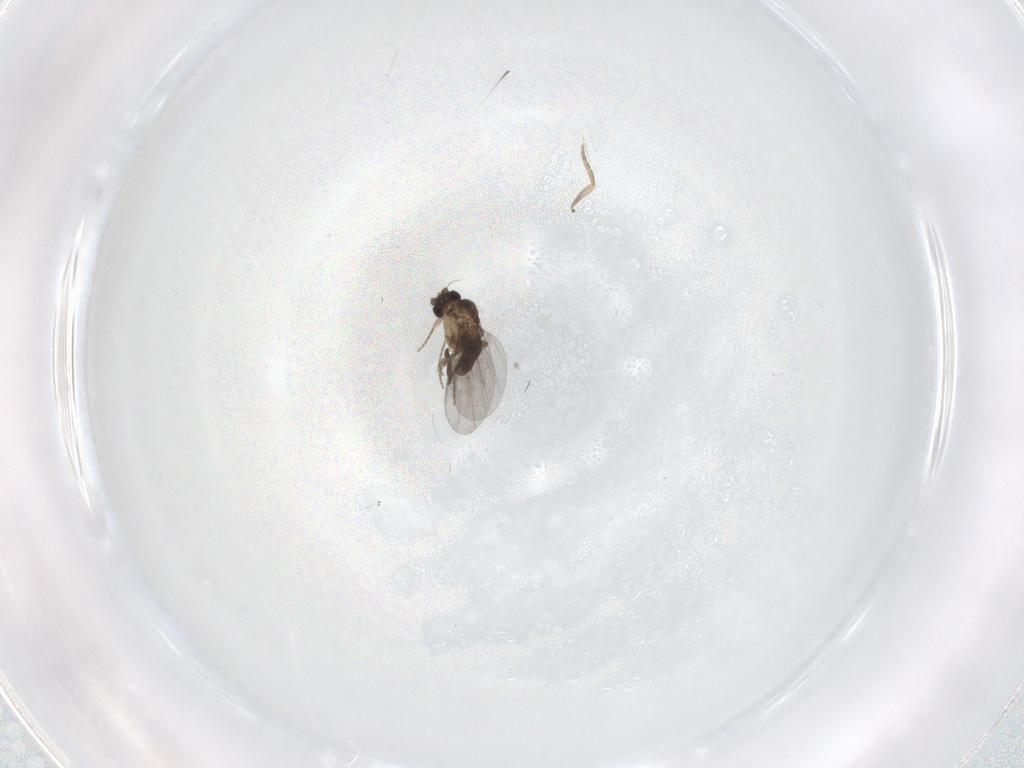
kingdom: Animalia
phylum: Arthropoda
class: Insecta
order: Diptera
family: Phoridae
